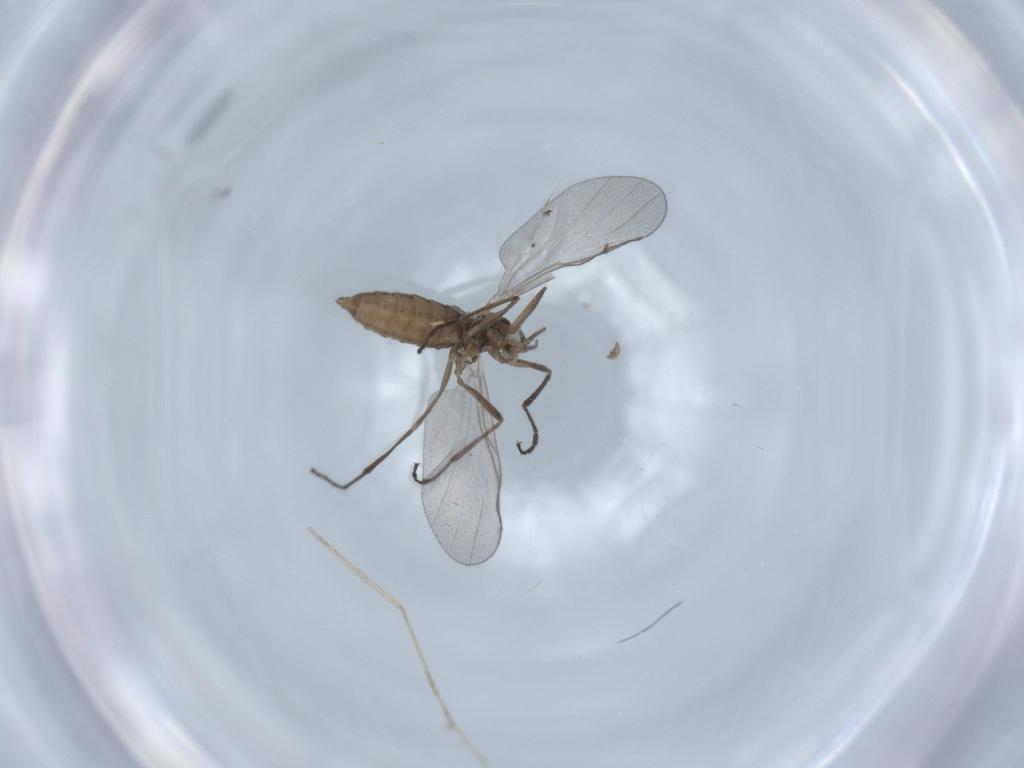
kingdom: Animalia
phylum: Arthropoda
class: Insecta
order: Diptera
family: Cecidomyiidae
